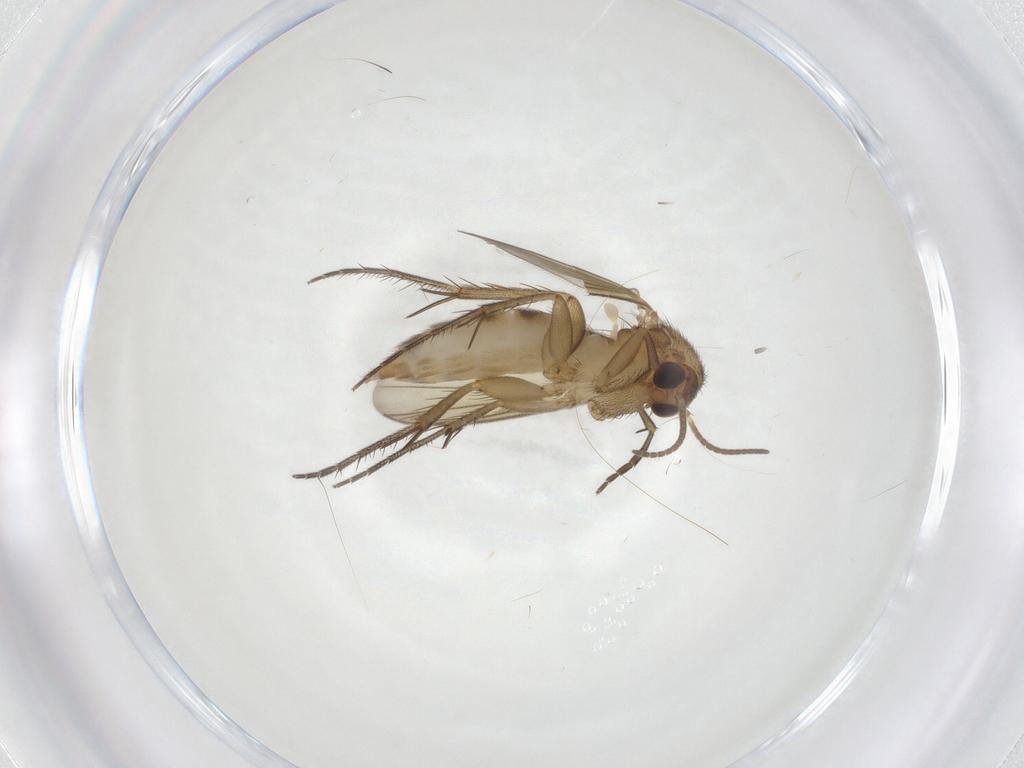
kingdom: Animalia
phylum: Arthropoda
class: Insecta
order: Diptera
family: Mycetophilidae
